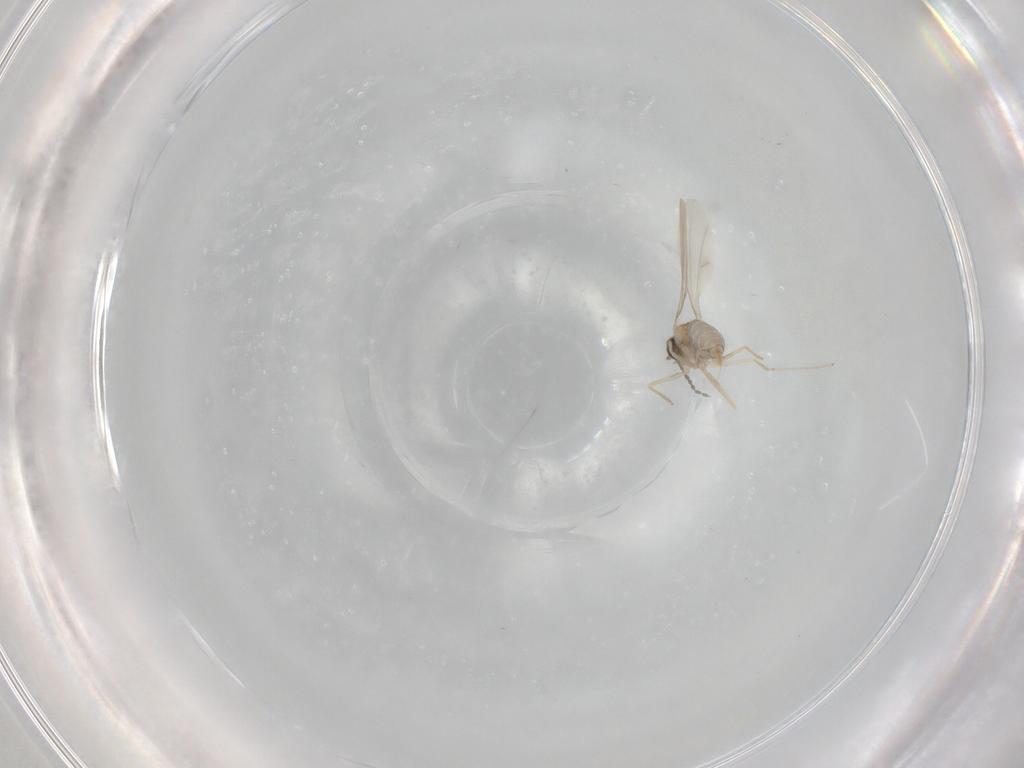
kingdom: Animalia
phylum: Arthropoda
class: Insecta
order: Diptera
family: Cecidomyiidae
